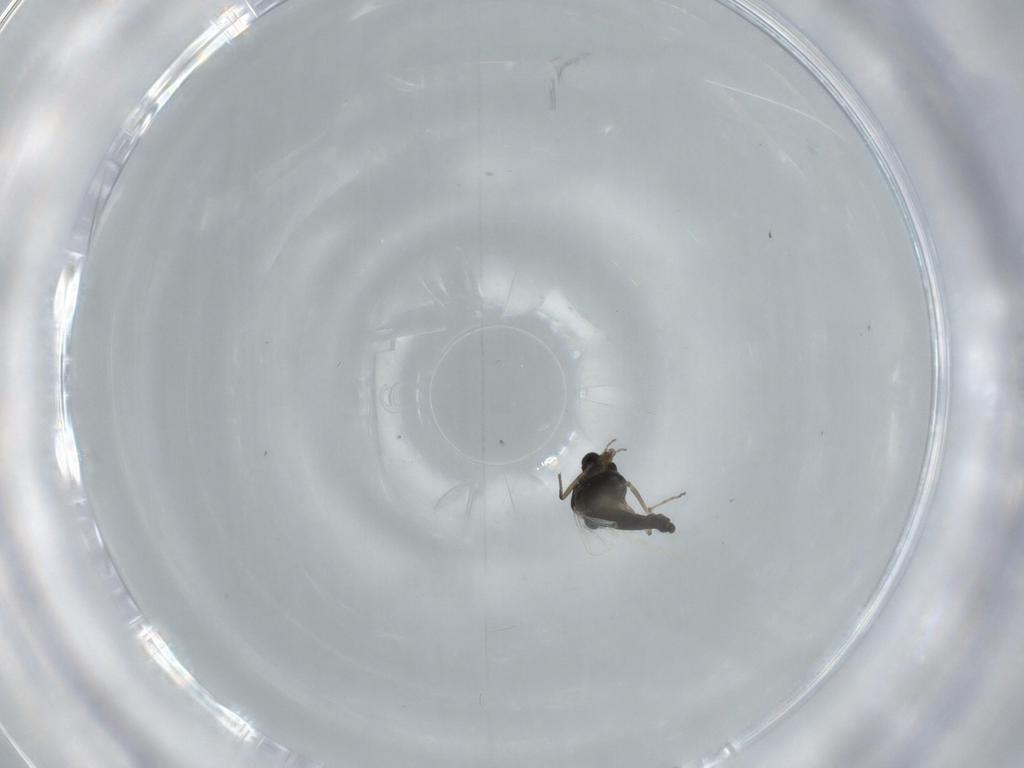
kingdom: Animalia
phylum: Arthropoda
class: Insecta
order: Diptera
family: Chironomidae
